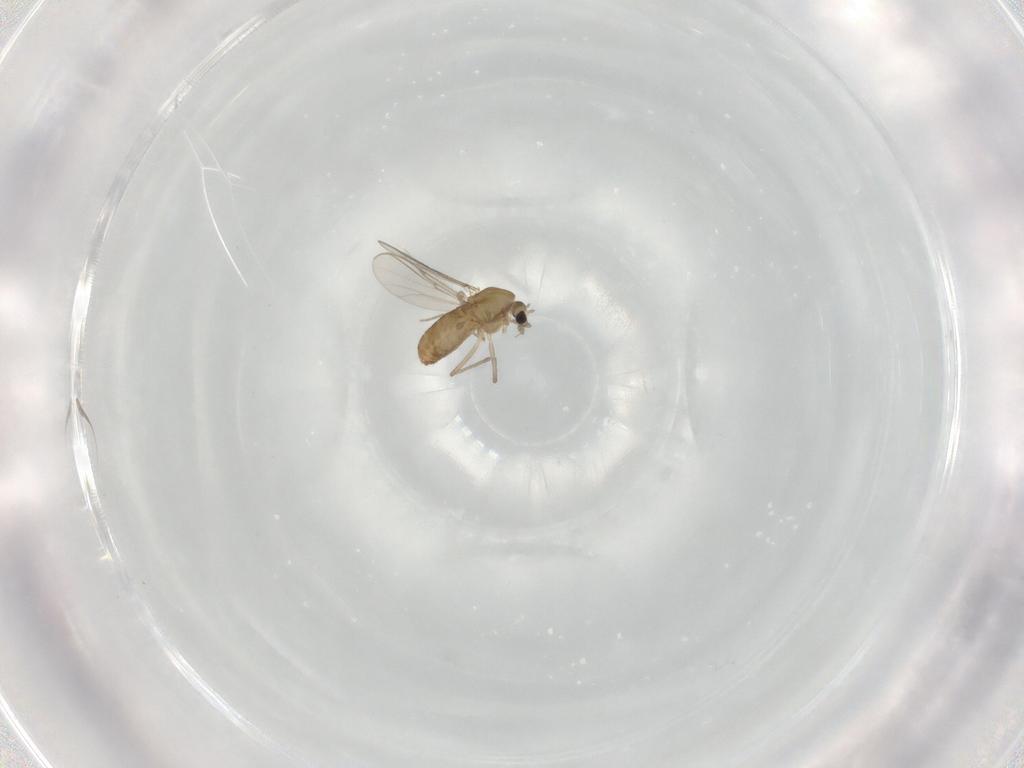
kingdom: Animalia
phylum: Arthropoda
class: Insecta
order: Diptera
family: Chironomidae
